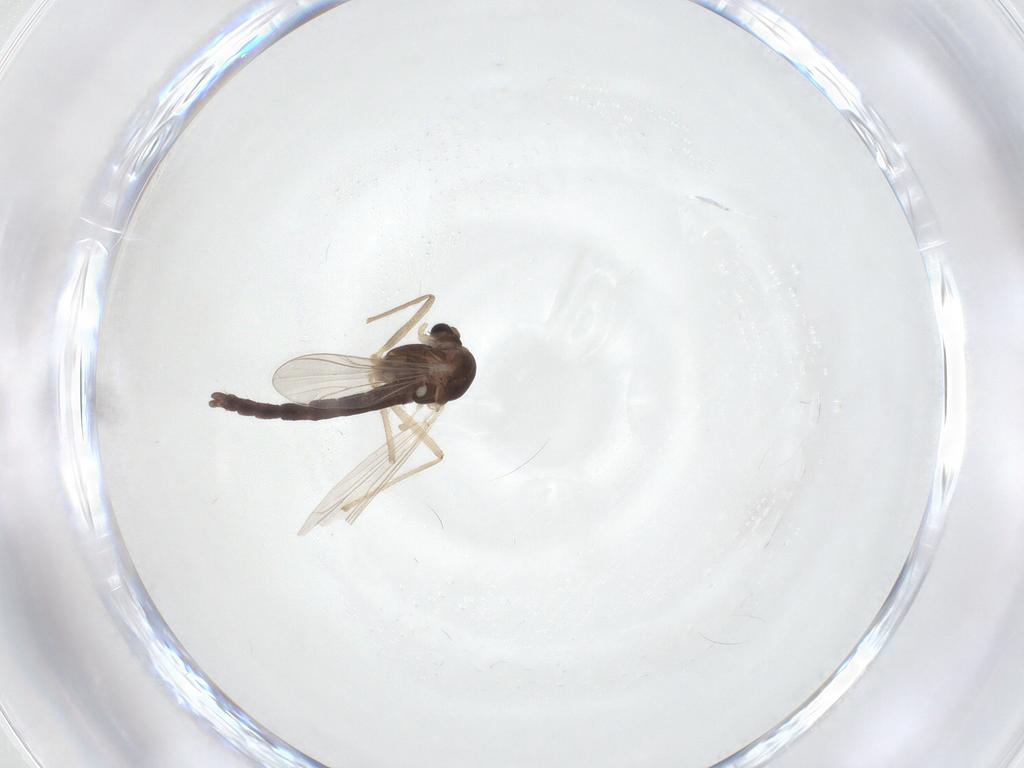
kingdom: Animalia
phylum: Arthropoda
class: Insecta
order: Diptera
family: Chironomidae
